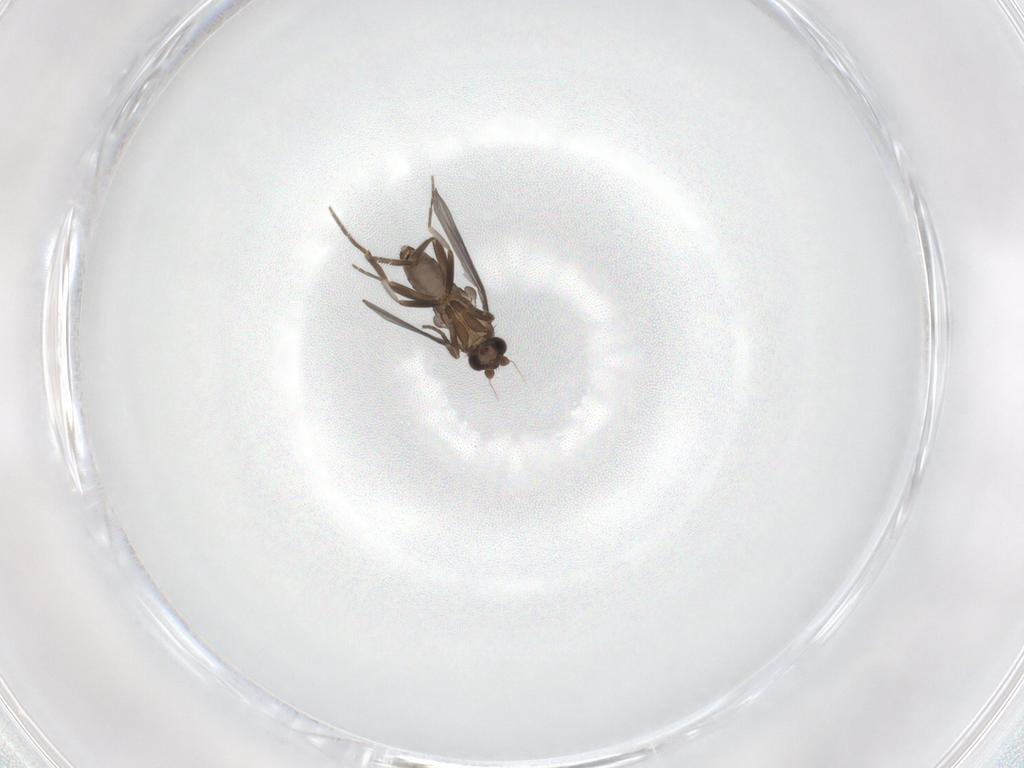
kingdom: Animalia
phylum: Arthropoda
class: Insecta
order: Diptera
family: Phoridae
